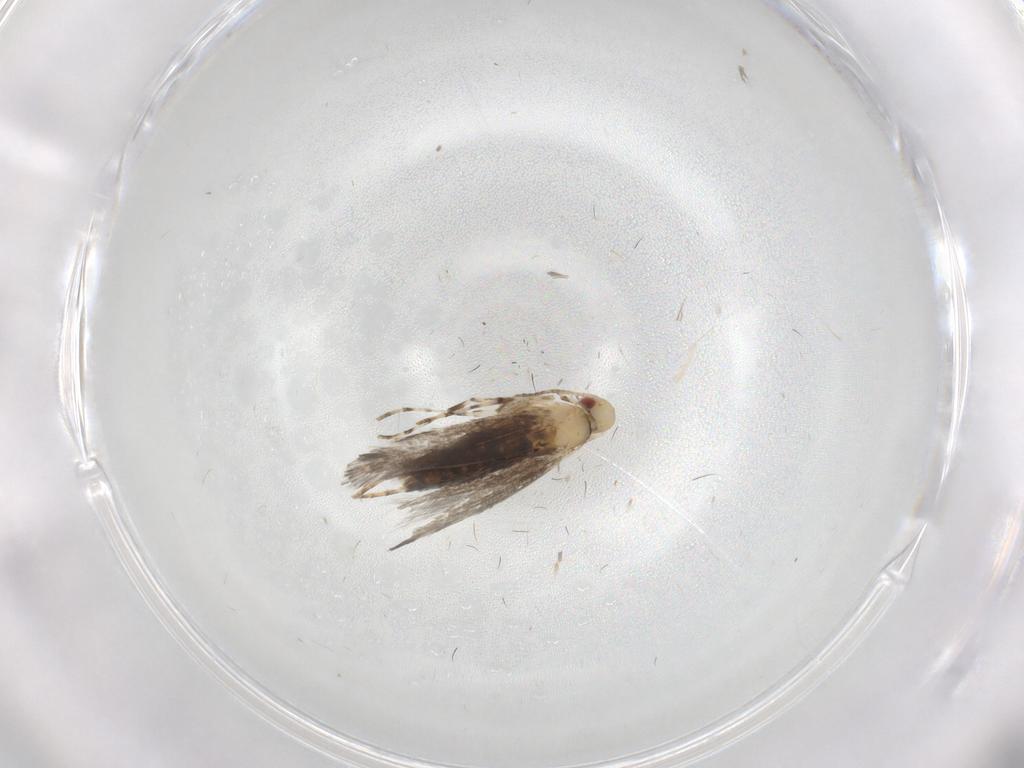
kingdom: Animalia
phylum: Arthropoda
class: Insecta
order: Lepidoptera
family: Gracillariidae
